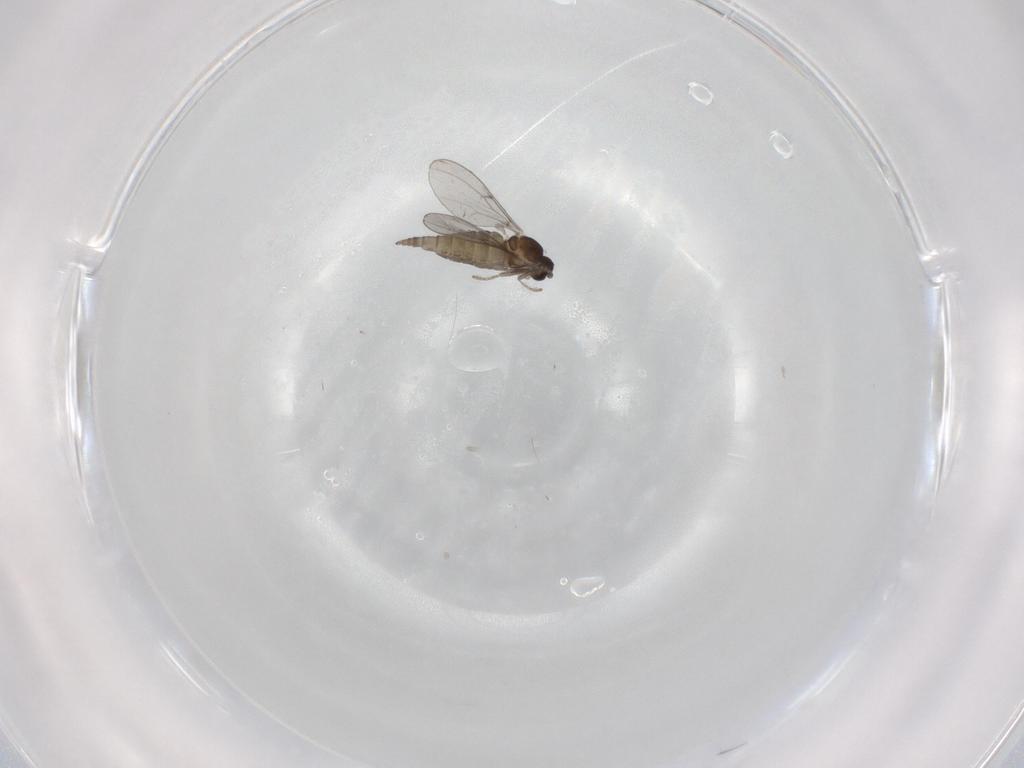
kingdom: Animalia
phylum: Arthropoda
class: Insecta
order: Diptera
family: Cecidomyiidae
